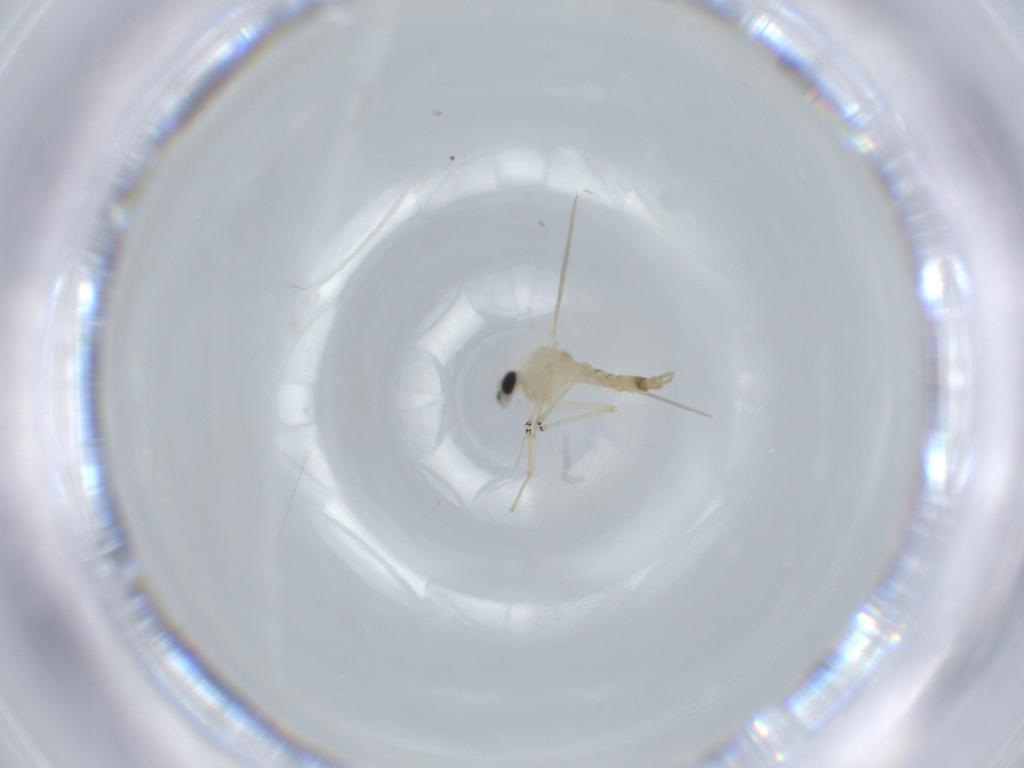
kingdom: Animalia
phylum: Arthropoda
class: Insecta
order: Diptera
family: Chironomidae
